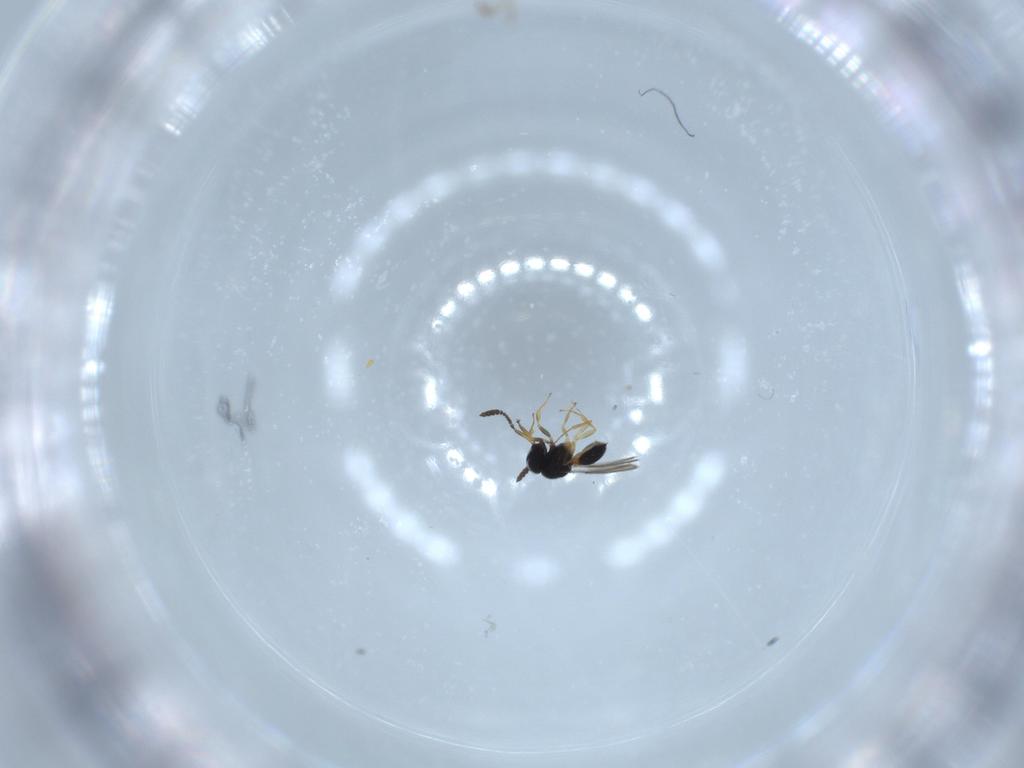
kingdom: Animalia
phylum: Arthropoda
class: Insecta
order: Hymenoptera
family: Scelionidae
